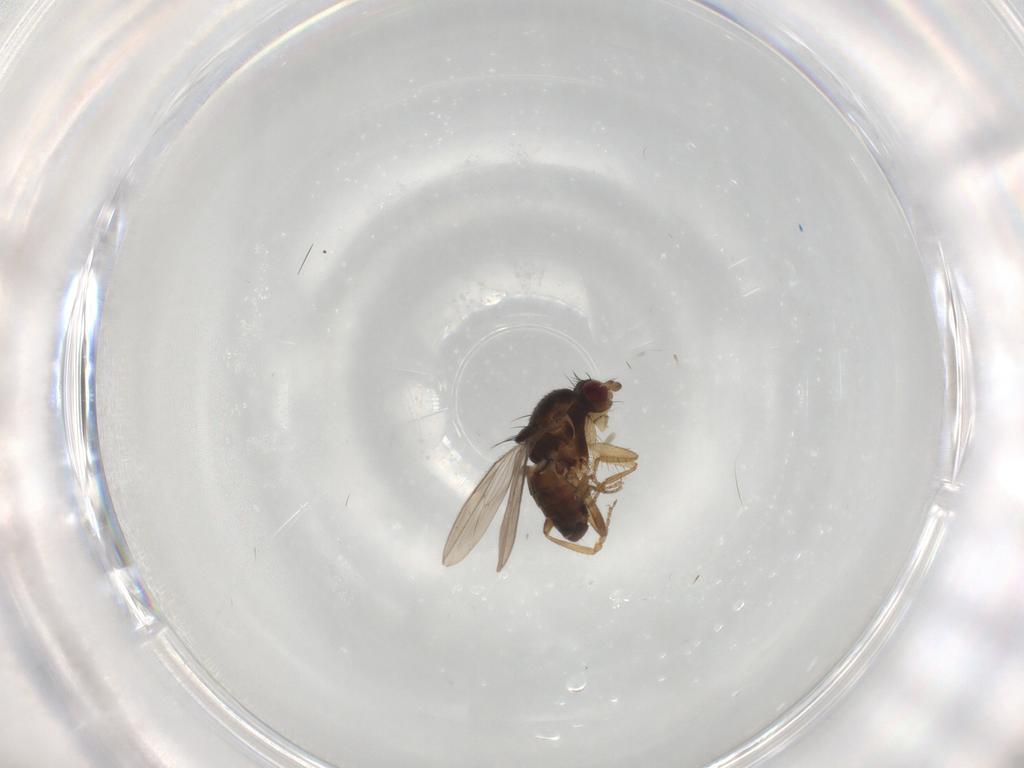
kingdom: Animalia
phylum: Arthropoda
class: Insecta
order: Diptera
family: Sphaeroceridae
